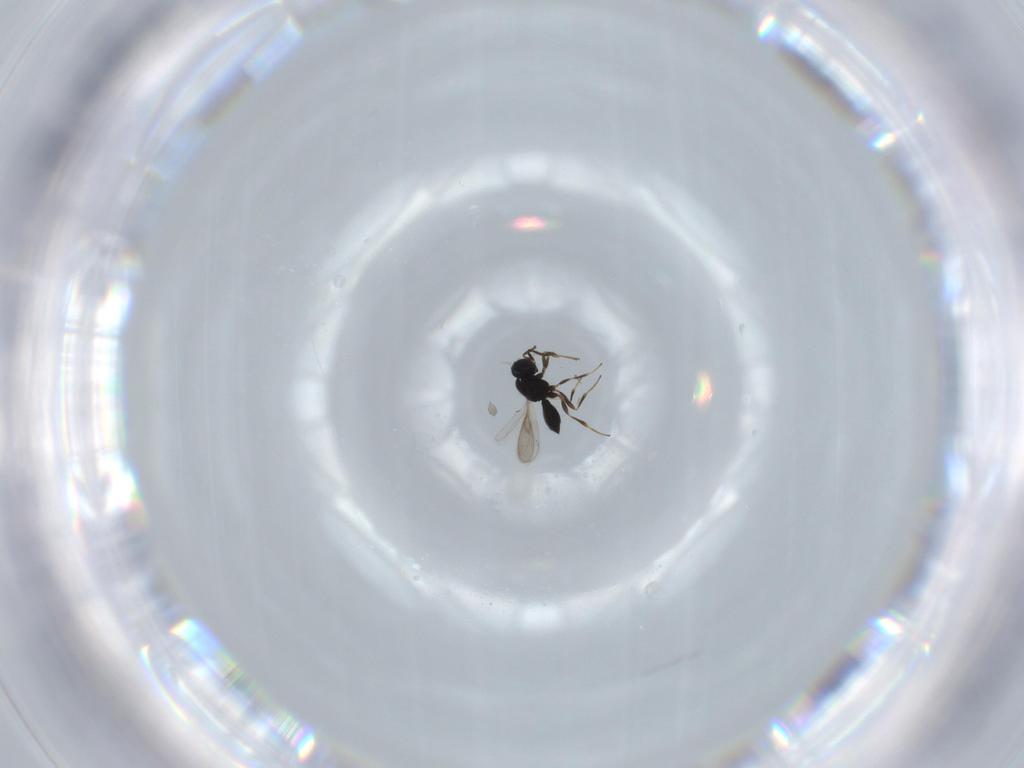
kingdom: Animalia
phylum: Arthropoda
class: Insecta
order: Hymenoptera
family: Scelionidae
